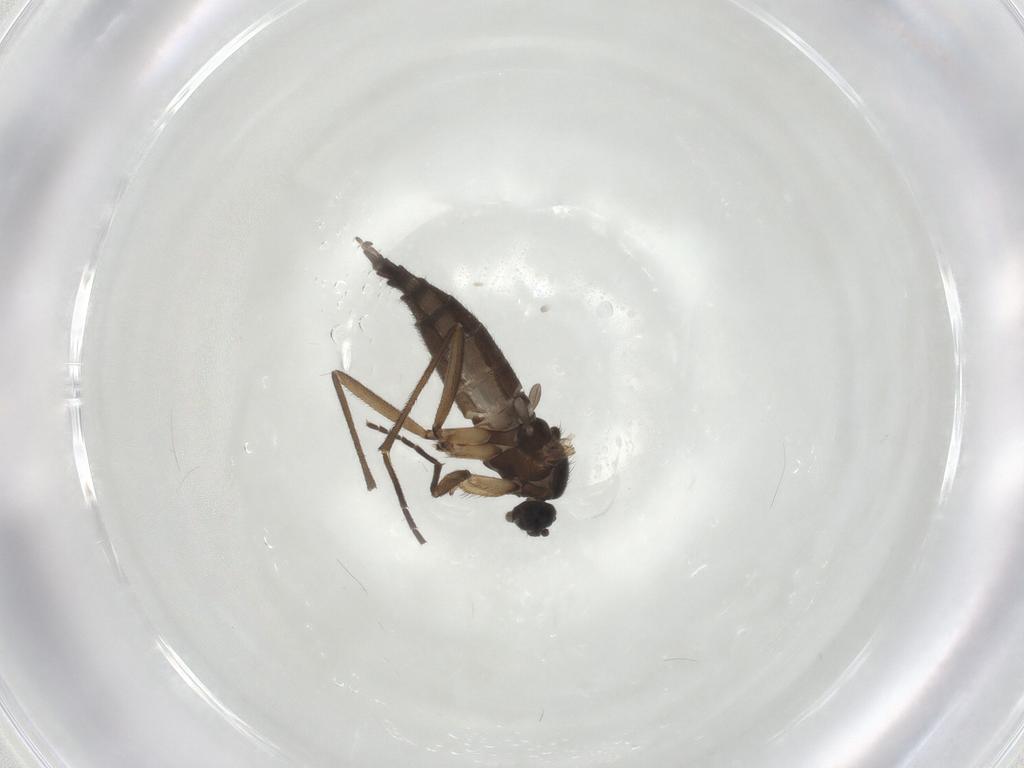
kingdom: Animalia
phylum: Arthropoda
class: Insecta
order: Diptera
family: Sciaridae
